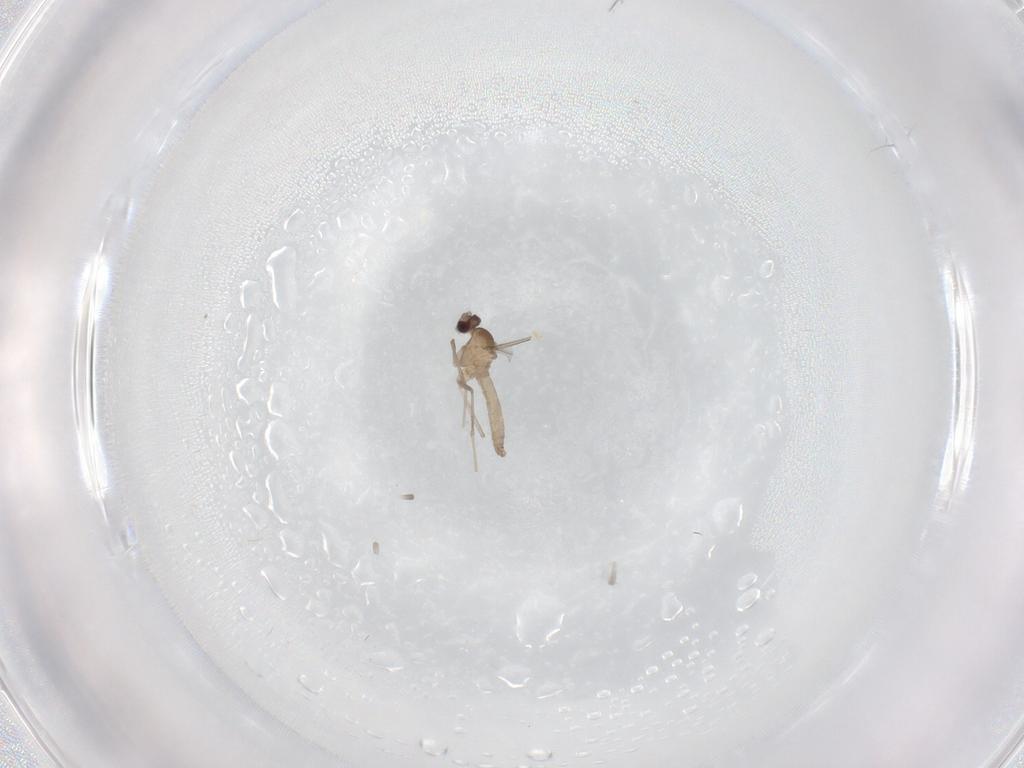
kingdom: Animalia
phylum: Arthropoda
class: Insecta
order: Diptera
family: Cecidomyiidae
